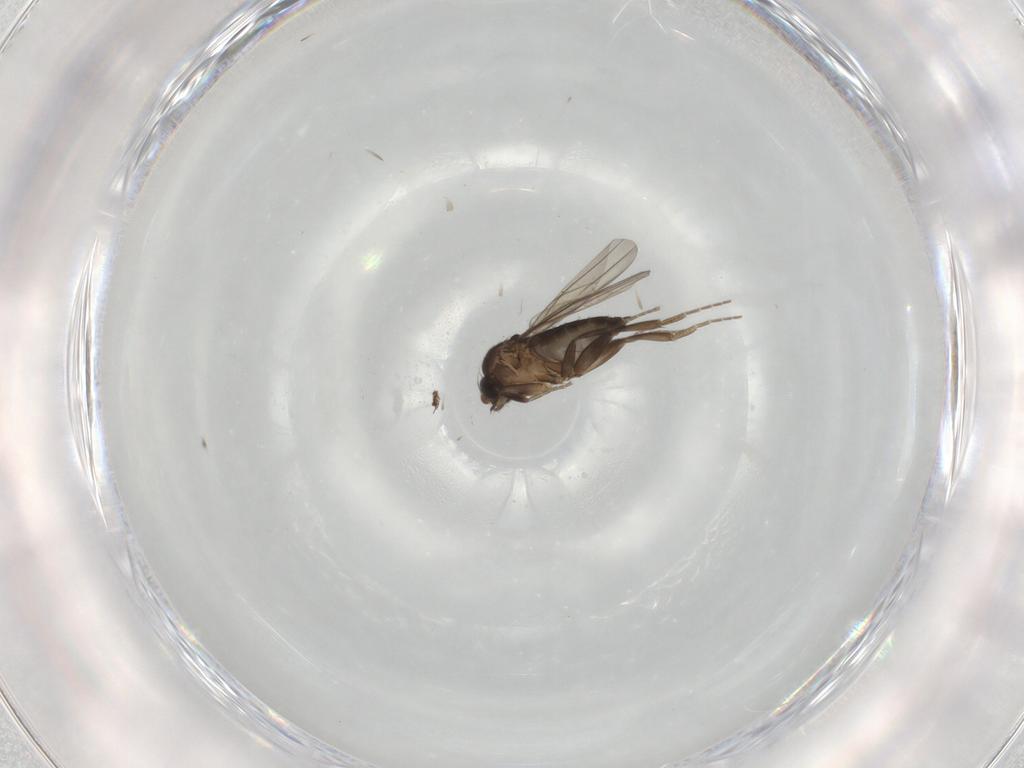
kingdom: Animalia
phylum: Arthropoda
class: Insecta
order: Diptera
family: Phoridae
